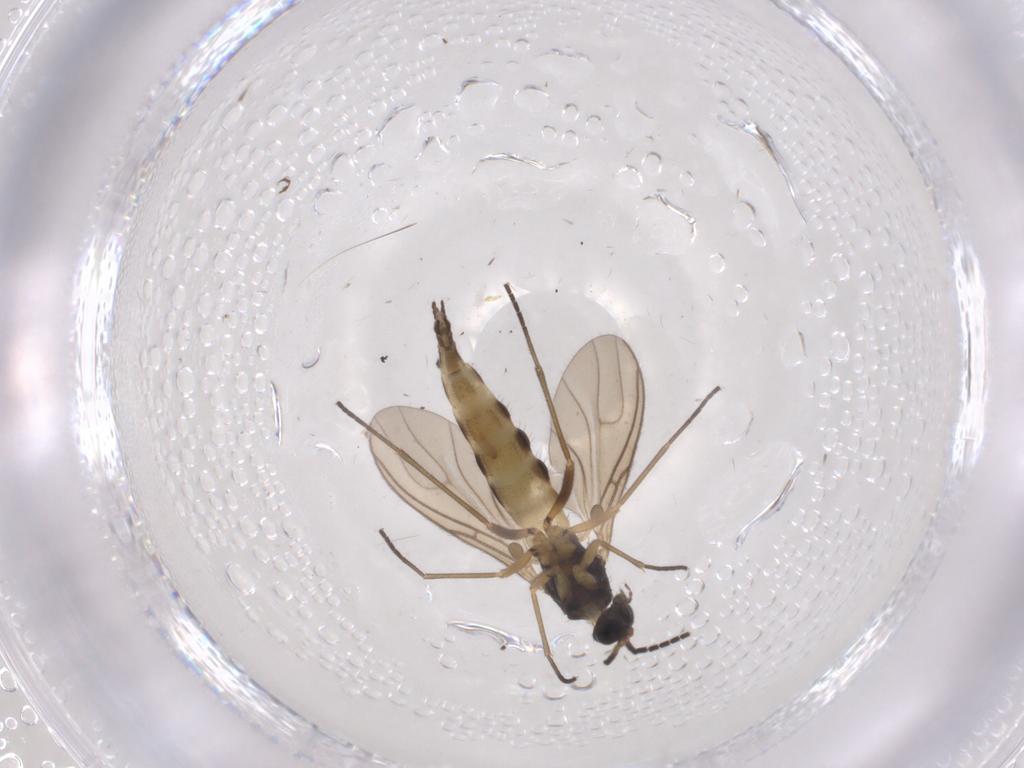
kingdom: Animalia
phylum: Arthropoda
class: Insecta
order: Diptera
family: Sciaridae
